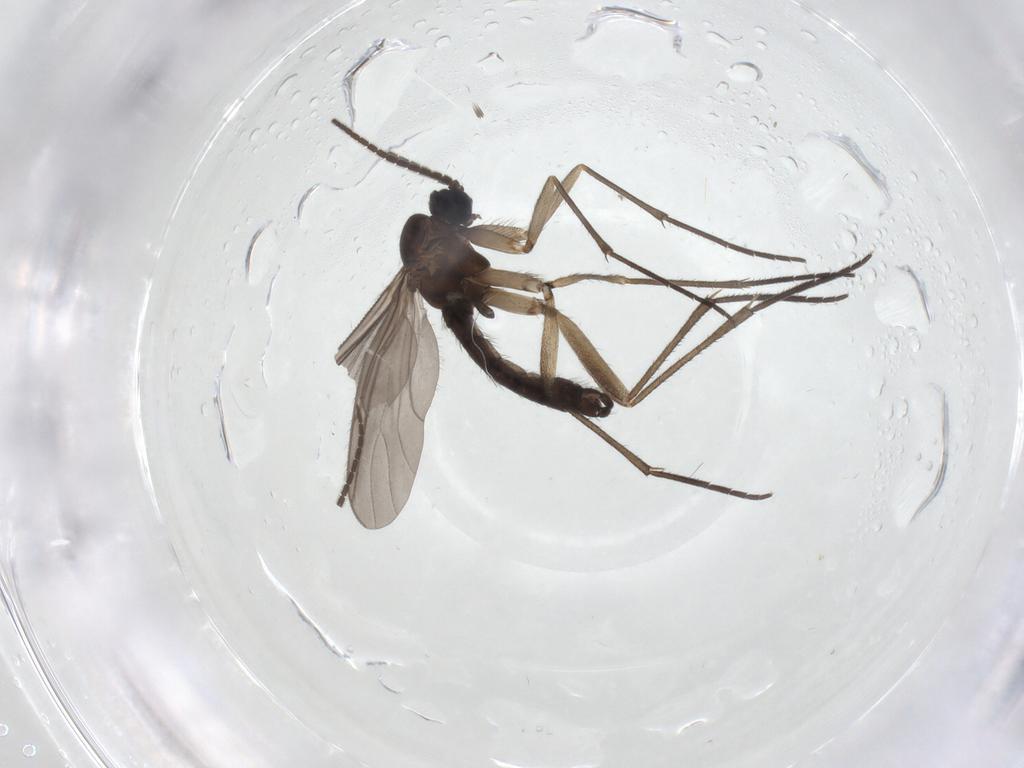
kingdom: Animalia
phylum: Arthropoda
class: Insecta
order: Diptera
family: Sciaridae
